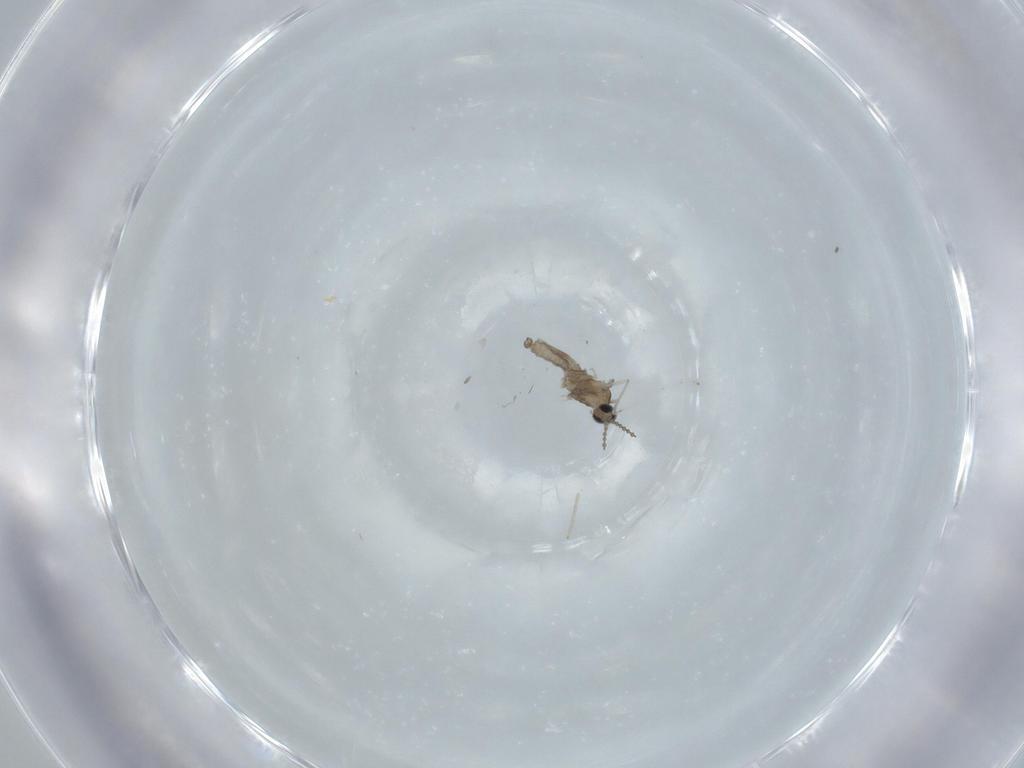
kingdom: Animalia
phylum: Arthropoda
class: Insecta
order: Diptera
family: Cecidomyiidae
